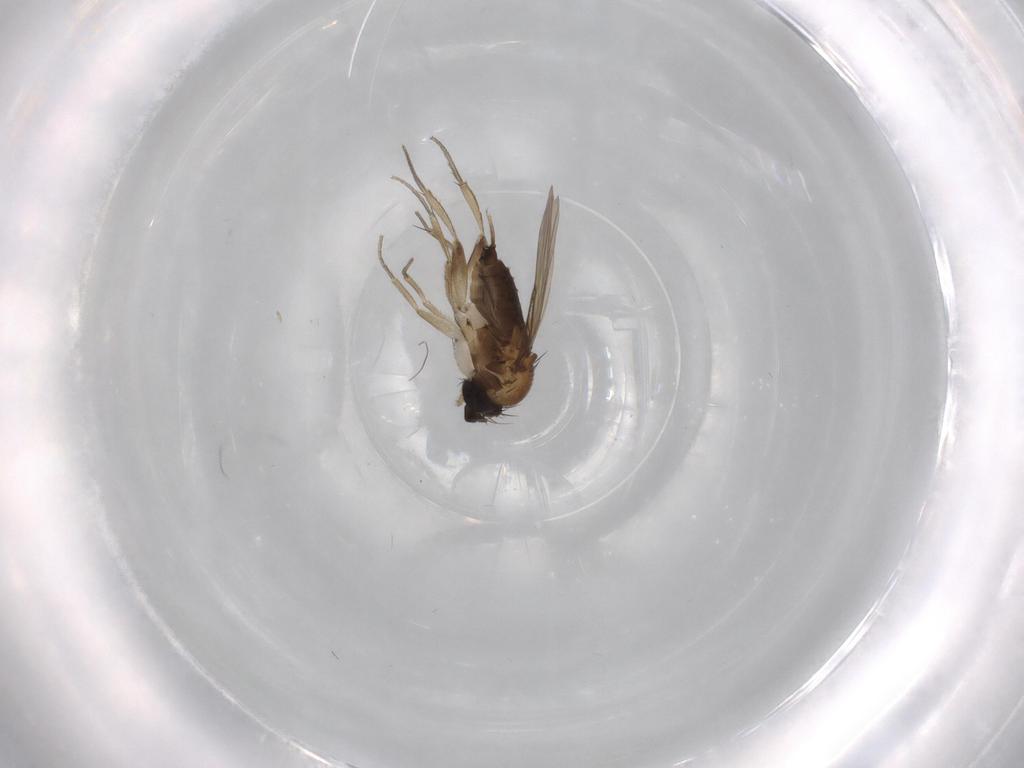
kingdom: Animalia
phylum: Arthropoda
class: Insecta
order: Diptera
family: Phoridae
